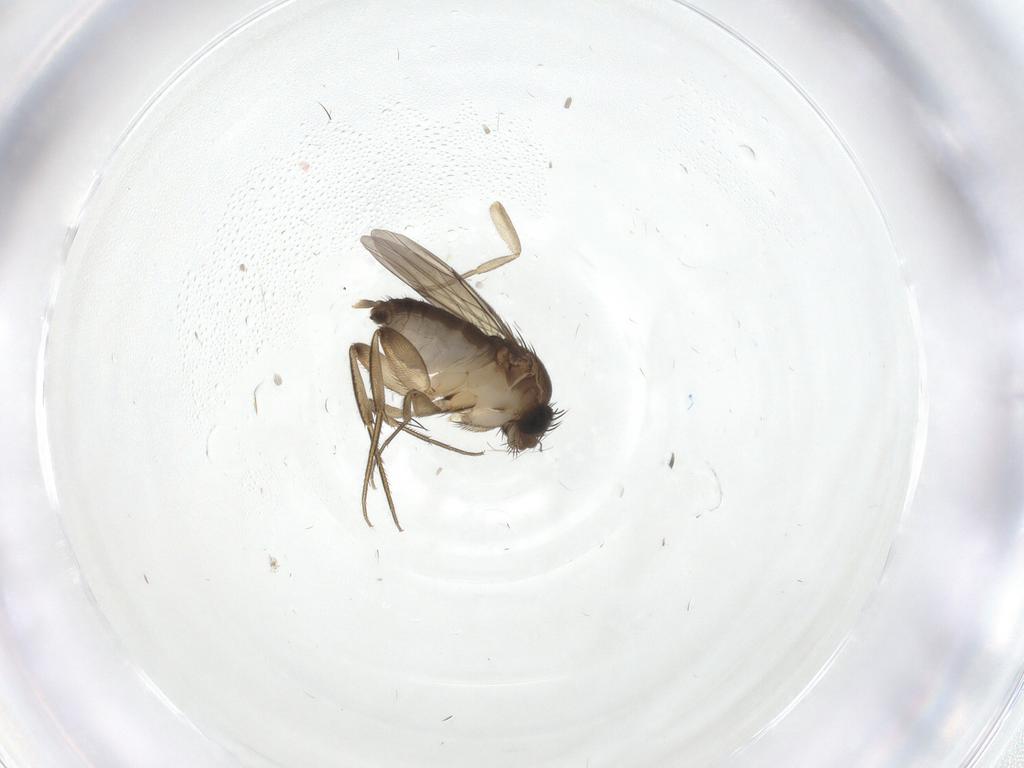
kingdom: Animalia
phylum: Arthropoda
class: Insecta
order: Diptera
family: Phoridae
